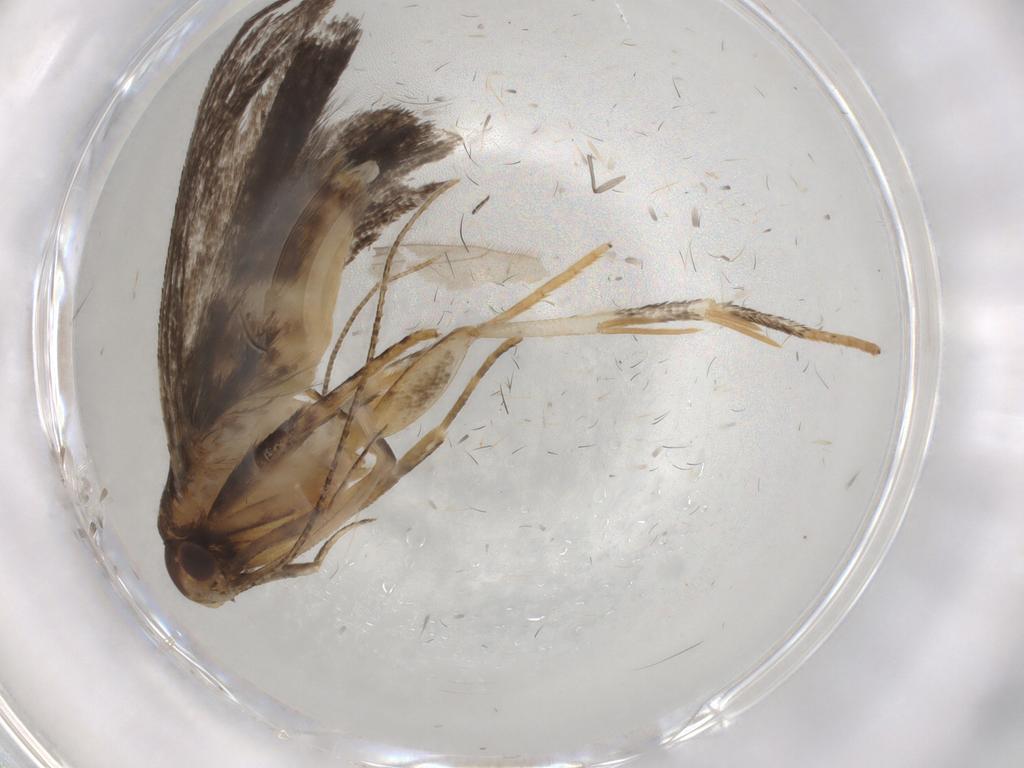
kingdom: Animalia
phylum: Arthropoda
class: Insecta
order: Lepidoptera
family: Gelechiidae
